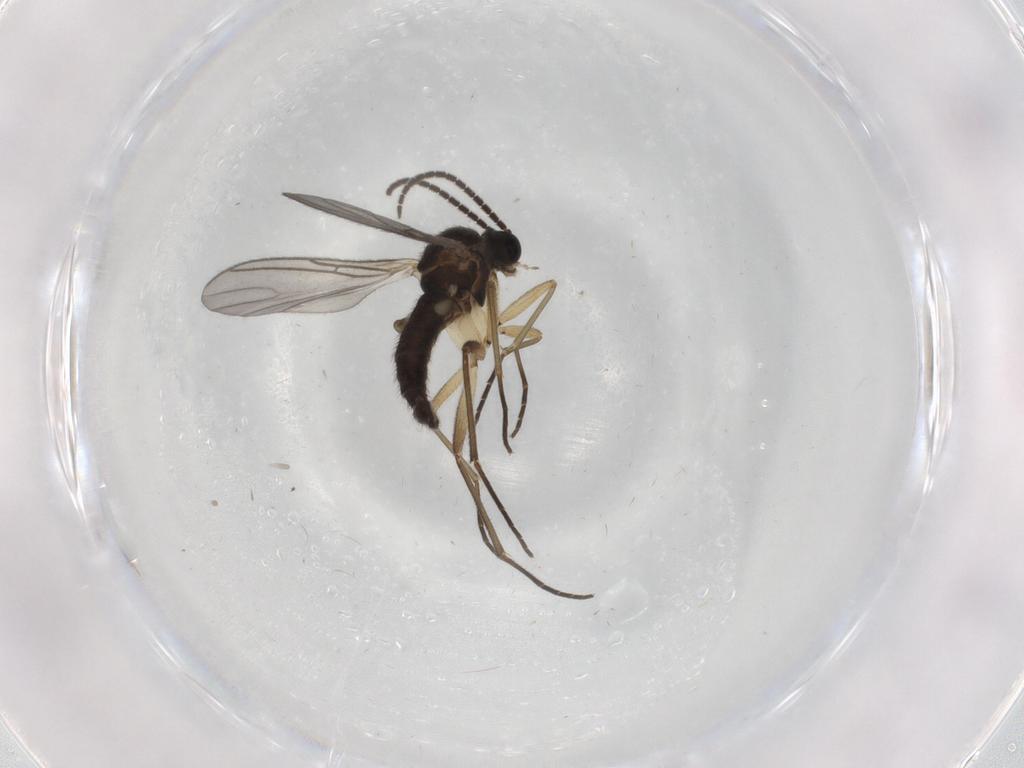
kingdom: Animalia
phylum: Arthropoda
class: Insecta
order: Diptera
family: Sciaridae
